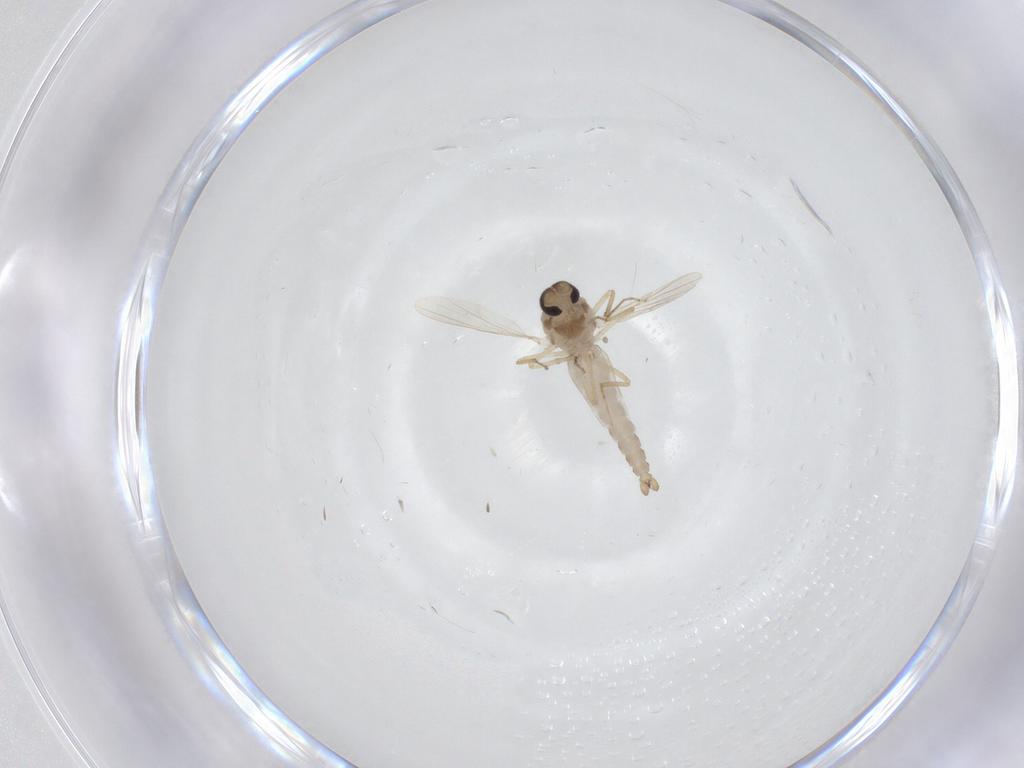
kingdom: Animalia
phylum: Arthropoda
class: Insecta
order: Diptera
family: Ceratopogonidae
